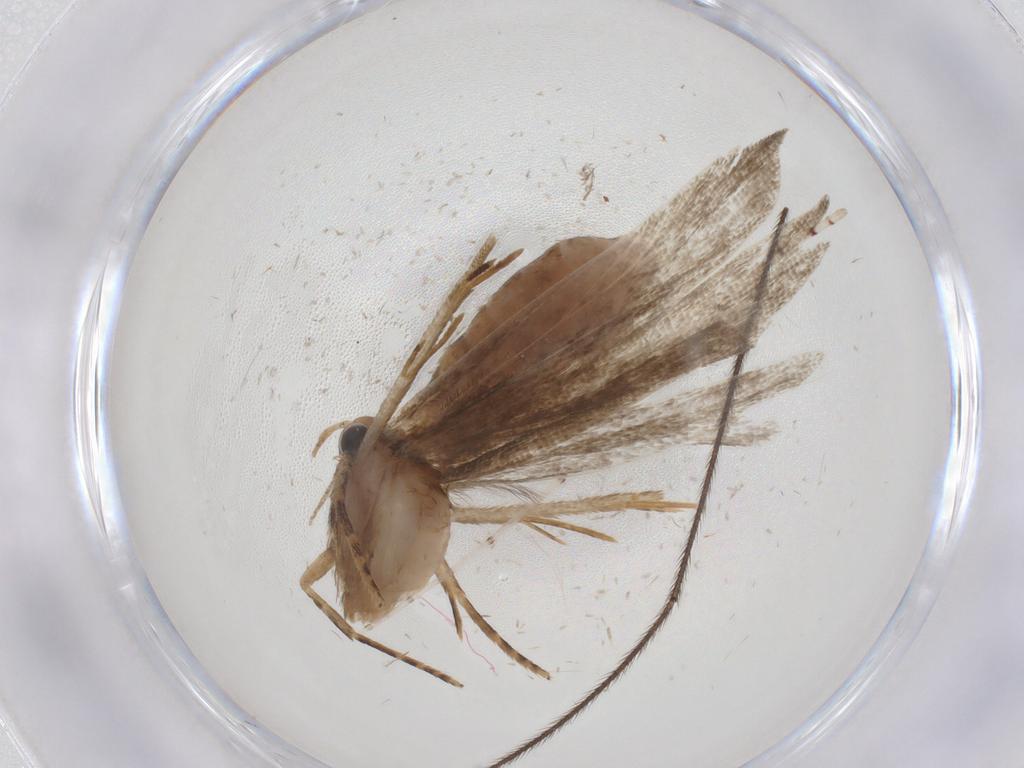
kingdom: Animalia
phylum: Arthropoda
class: Insecta
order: Lepidoptera
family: Gelechiidae
